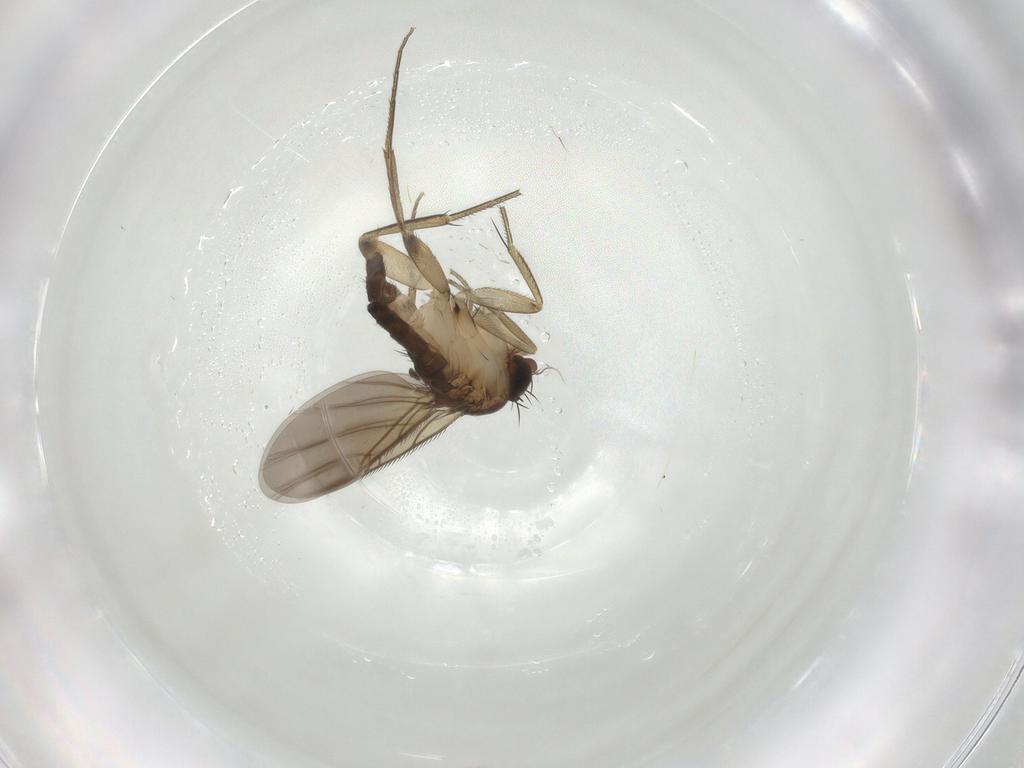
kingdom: Animalia
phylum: Arthropoda
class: Insecta
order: Diptera
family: Phoridae
